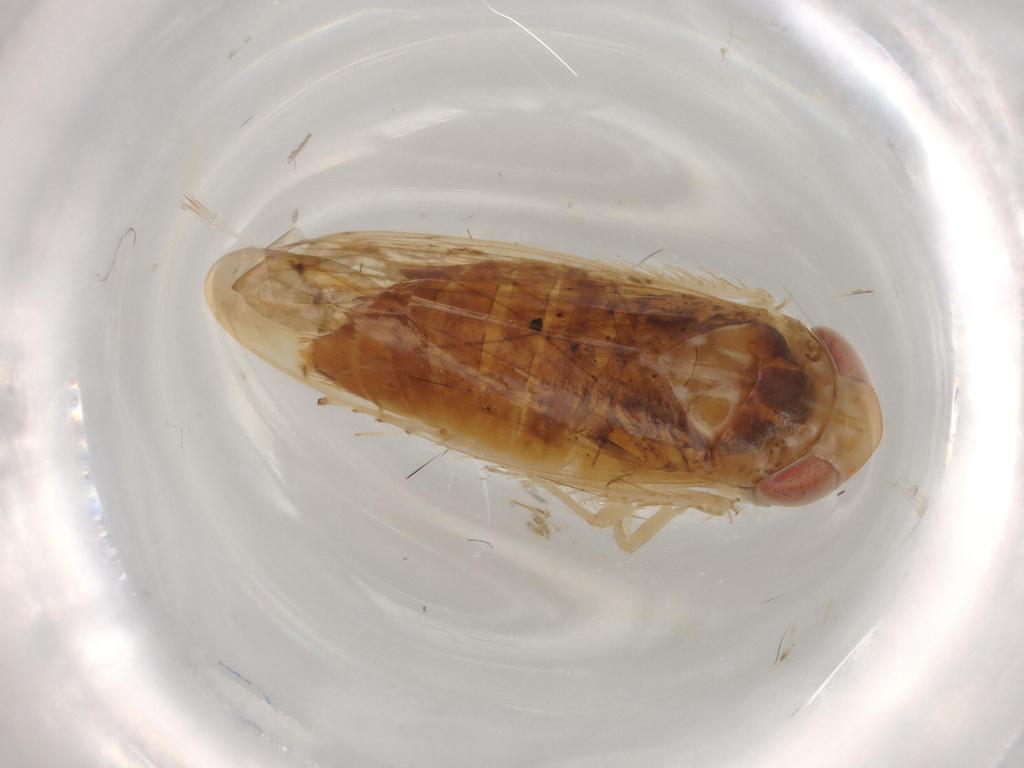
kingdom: Animalia
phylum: Arthropoda
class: Insecta
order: Hemiptera
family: Cicadellidae
